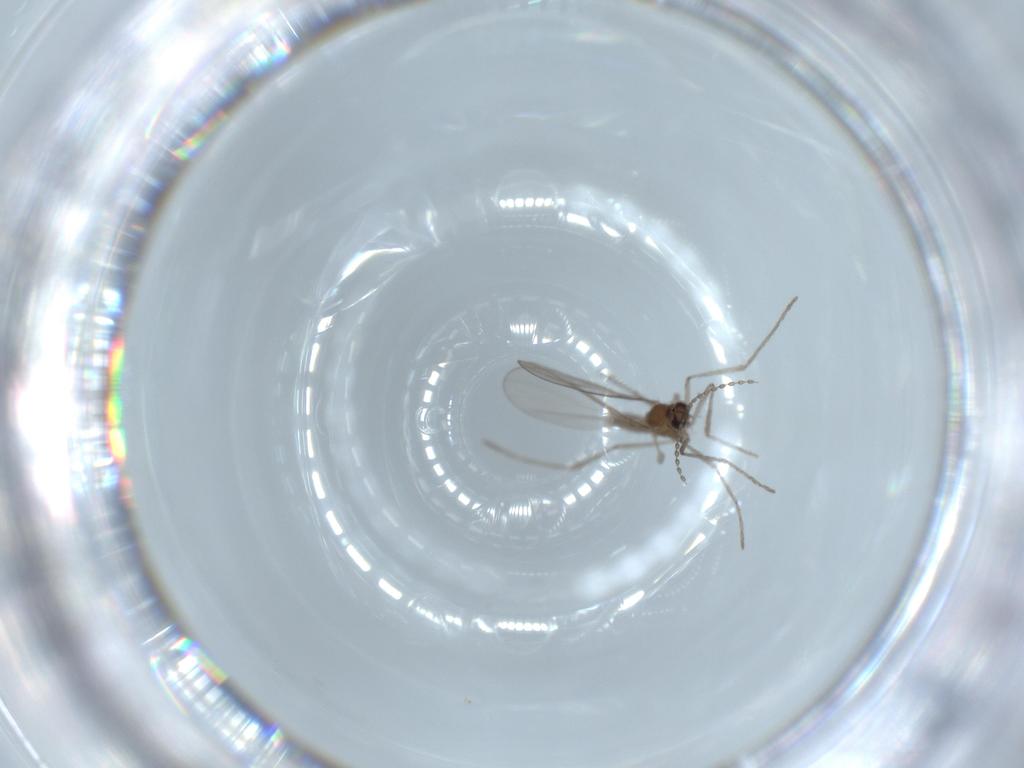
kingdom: Animalia
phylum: Arthropoda
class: Insecta
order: Diptera
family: Cecidomyiidae
